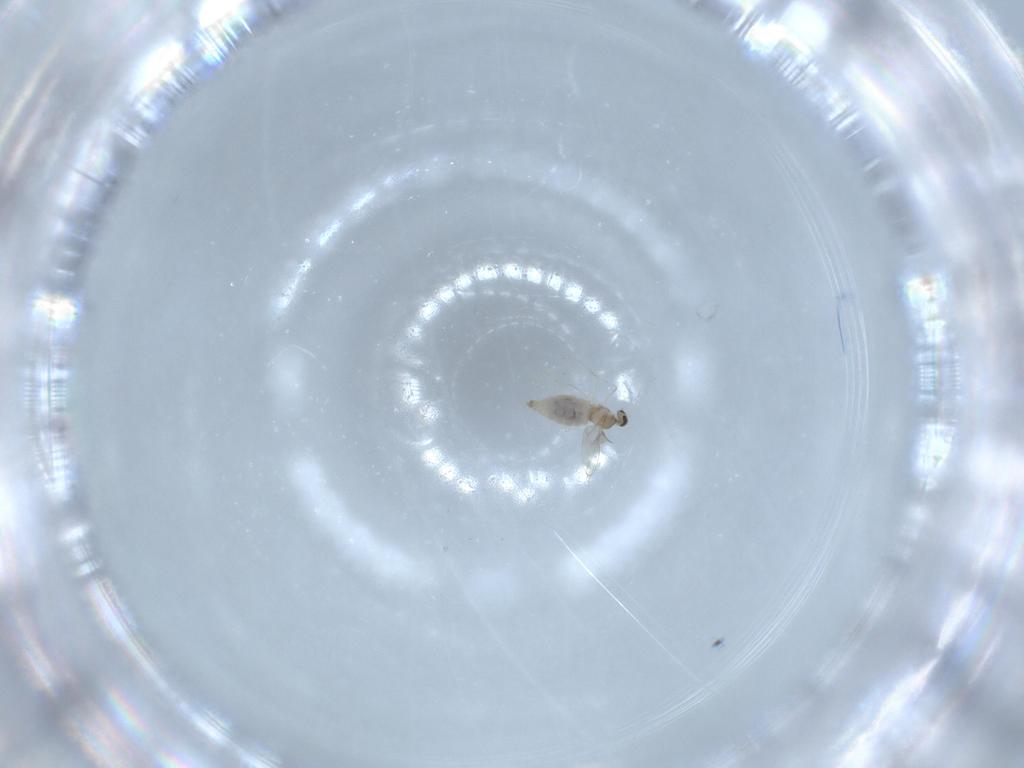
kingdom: Animalia
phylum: Arthropoda
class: Insecta
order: Diptera
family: Cecidomyiidae
